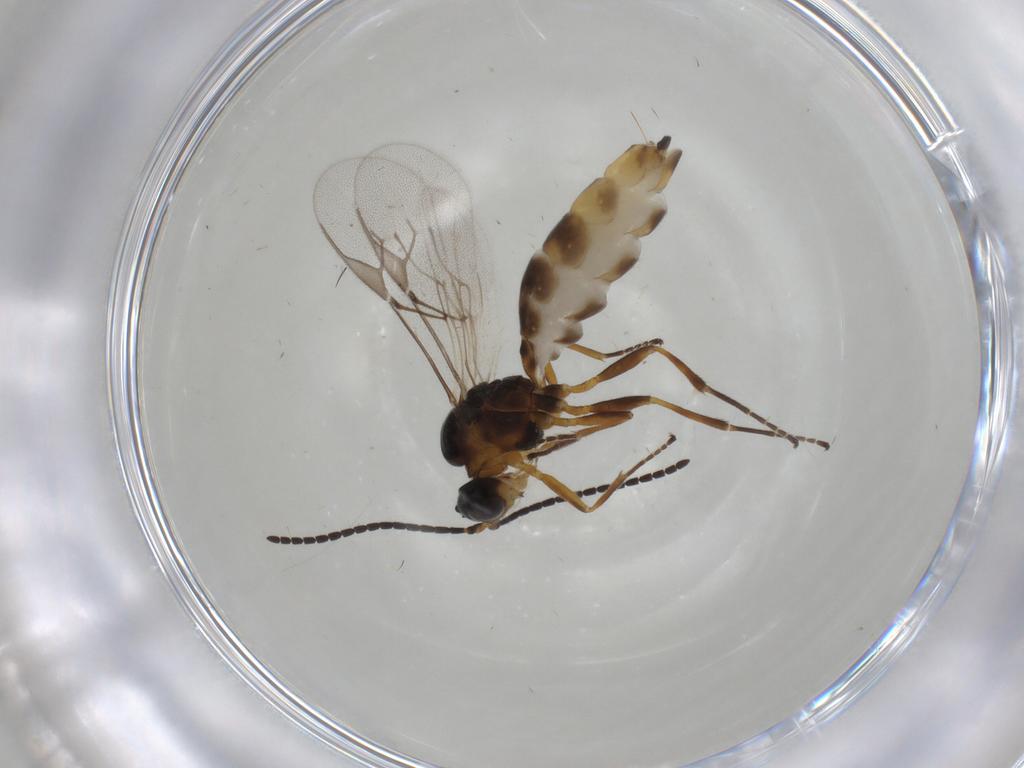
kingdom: Animalia
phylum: Arthropoda
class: Insecta
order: Hymenoptera
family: Braconidae
